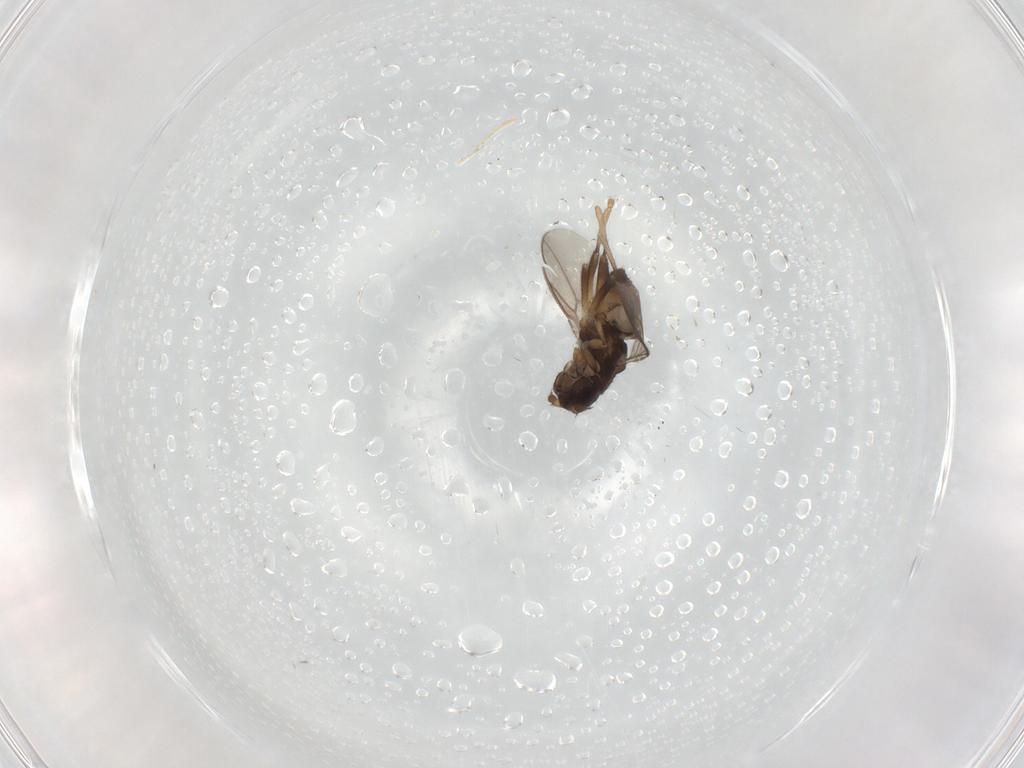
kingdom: Animalia
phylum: Arthropoda
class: Insecta
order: Diptera
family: Sphaeroceridae
